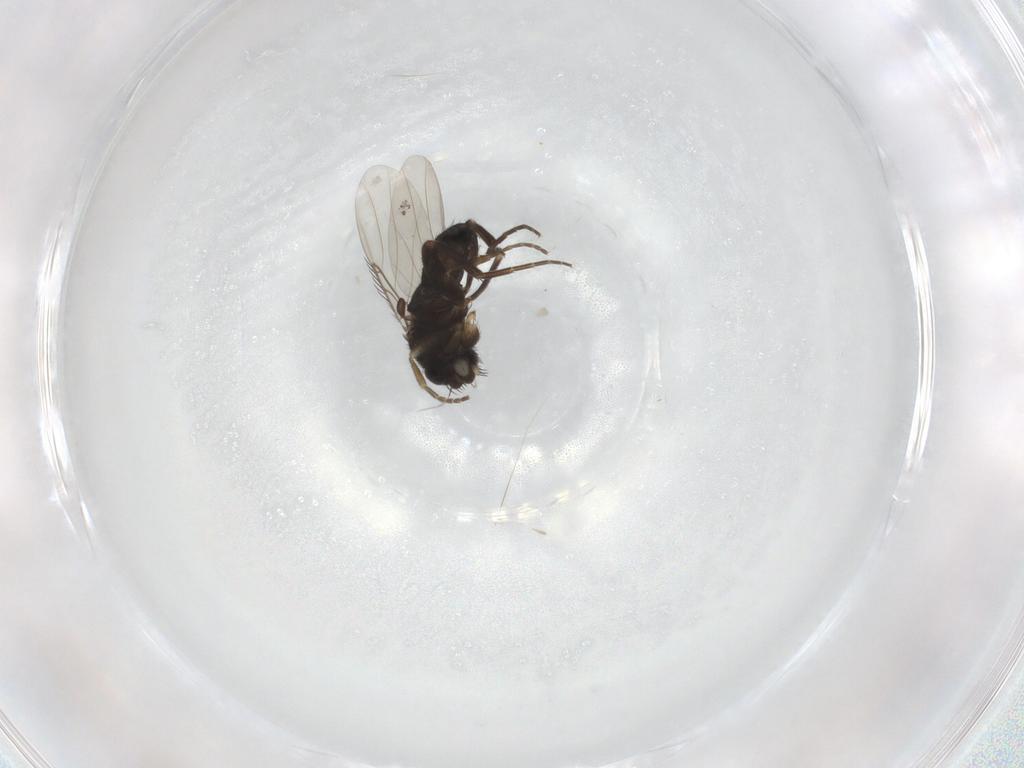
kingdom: Animalia
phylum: Arthropoda
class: Insecta
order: Diptera
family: Phoridae
